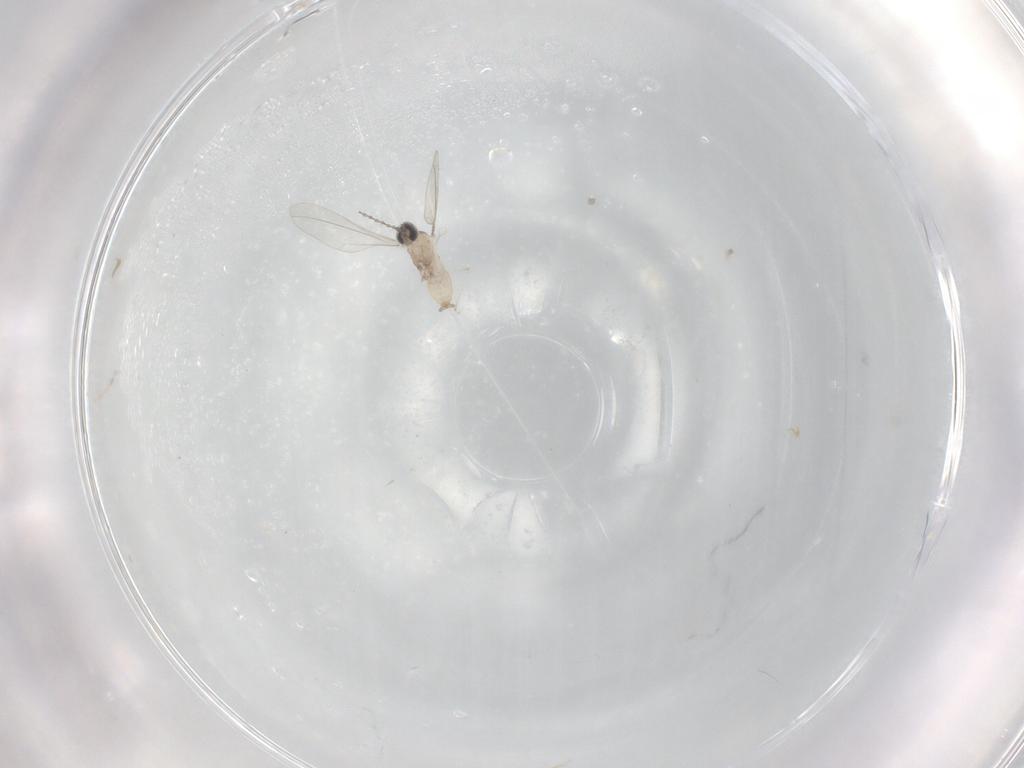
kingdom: Animalia
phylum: Arthropoda
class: Insecta
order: Diptera
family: Cecidomyiidae
